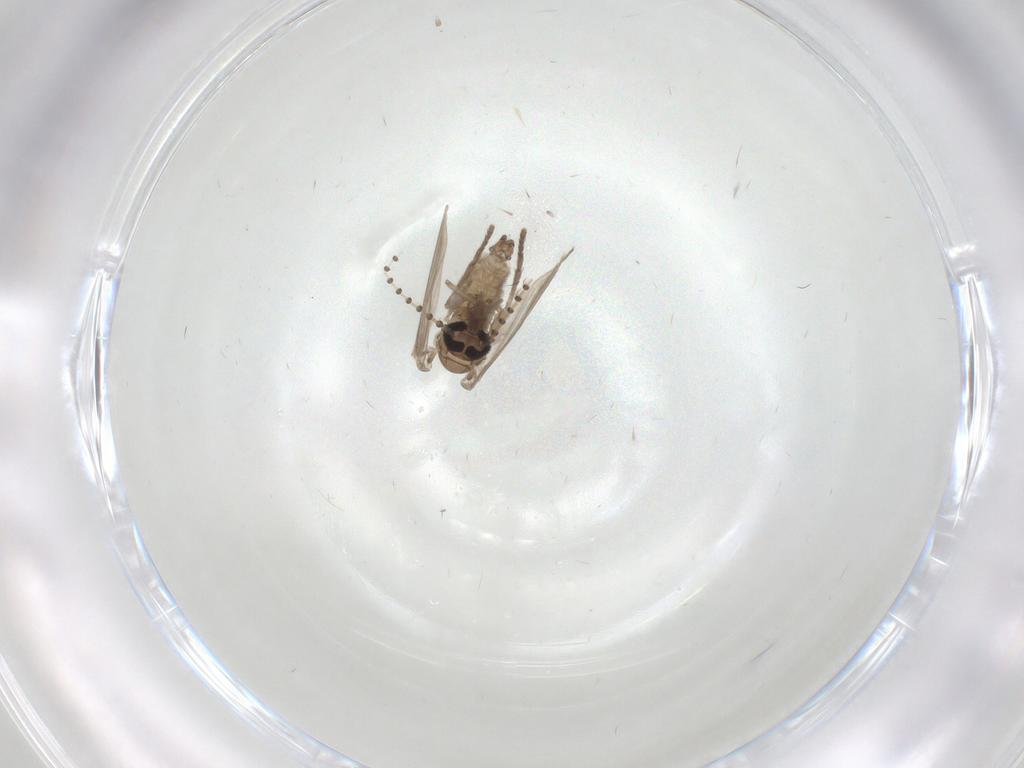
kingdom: Animalia
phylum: Arthropoda
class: Insecta
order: Diptera
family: Psychodidae
